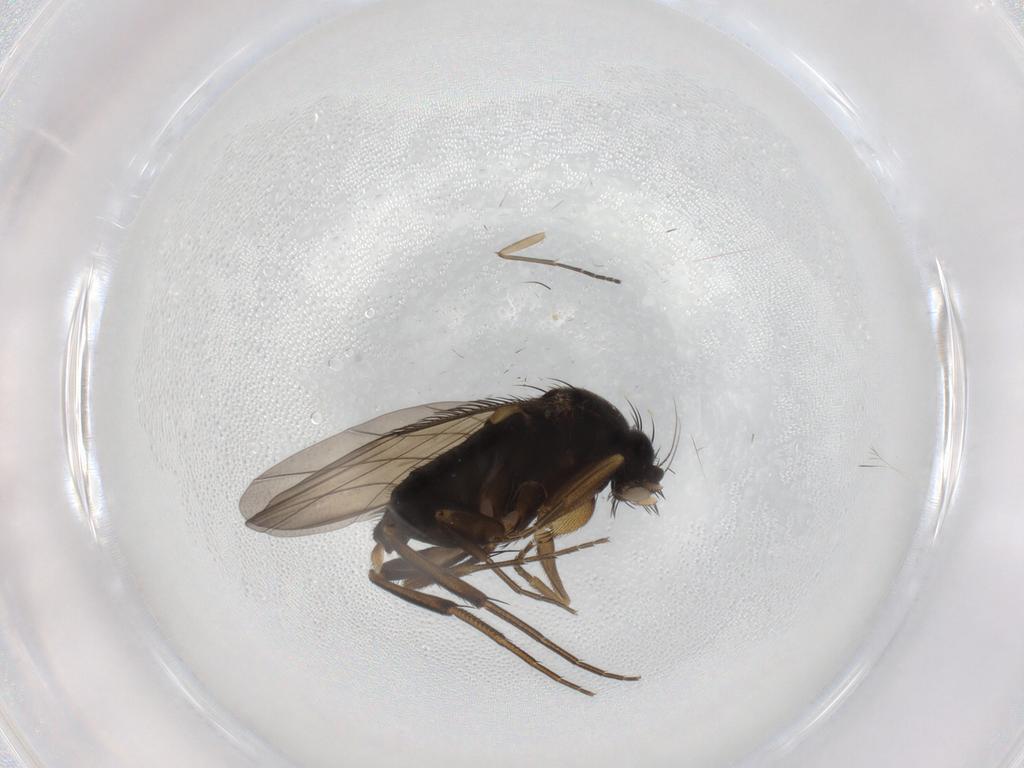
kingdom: Animalia
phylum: Arthropoda
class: Insecta
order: Diptera
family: Phoridae
